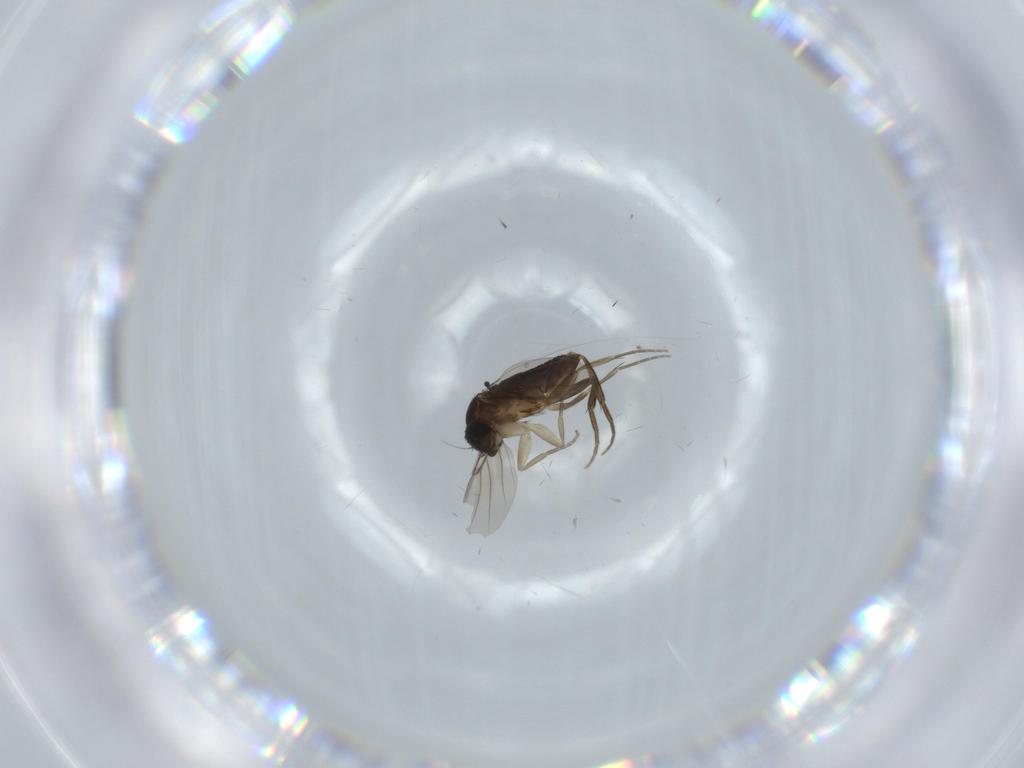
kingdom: Animalia
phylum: Arthropoda
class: Insecta
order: Diptera
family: Phoridae
